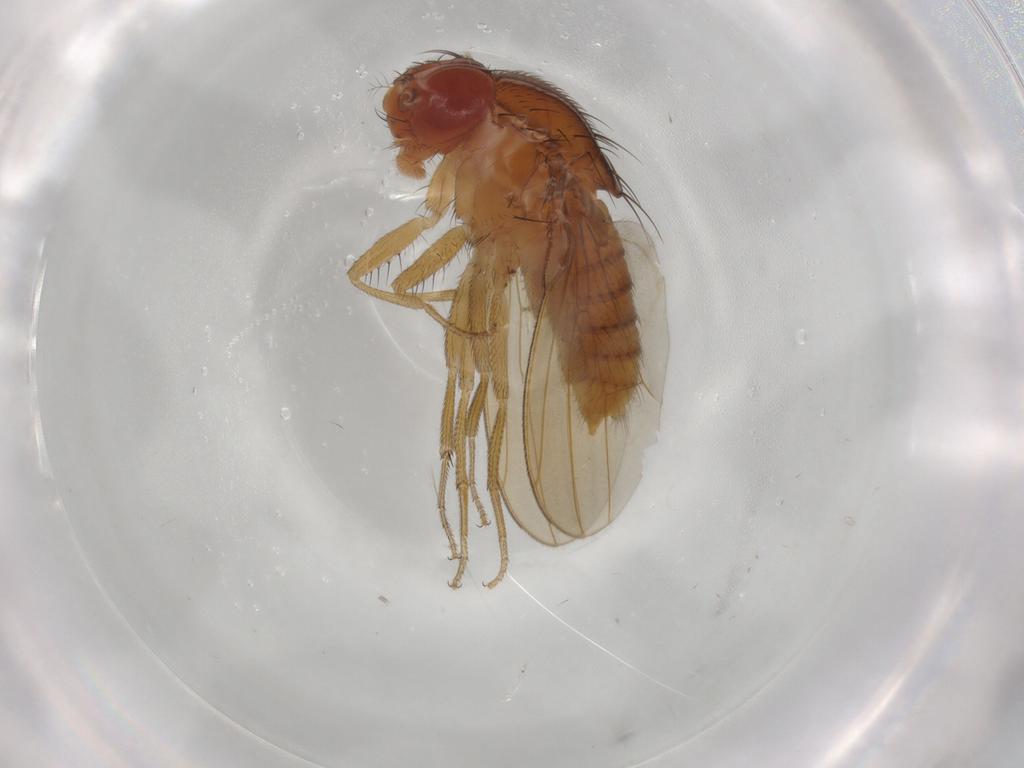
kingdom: Animalia
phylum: Arthropoda
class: Insecta
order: Diptera
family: Drosophilidae
